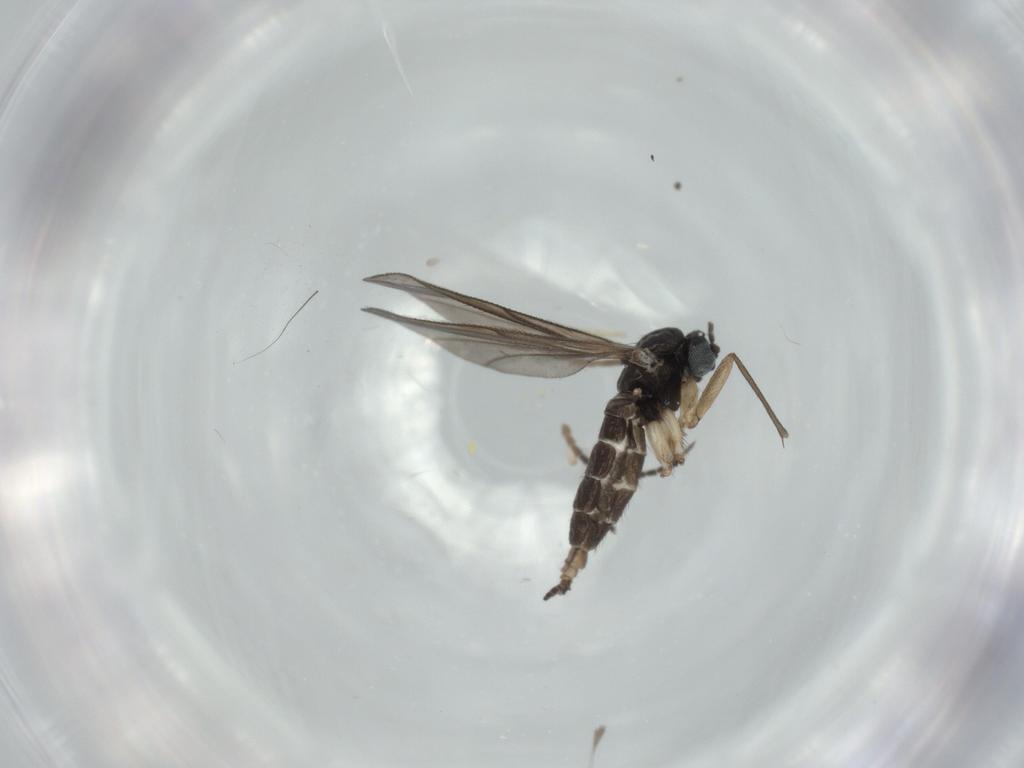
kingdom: Animalia
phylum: Arthropoda
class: Insecta
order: Diptera
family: Sciaridae
